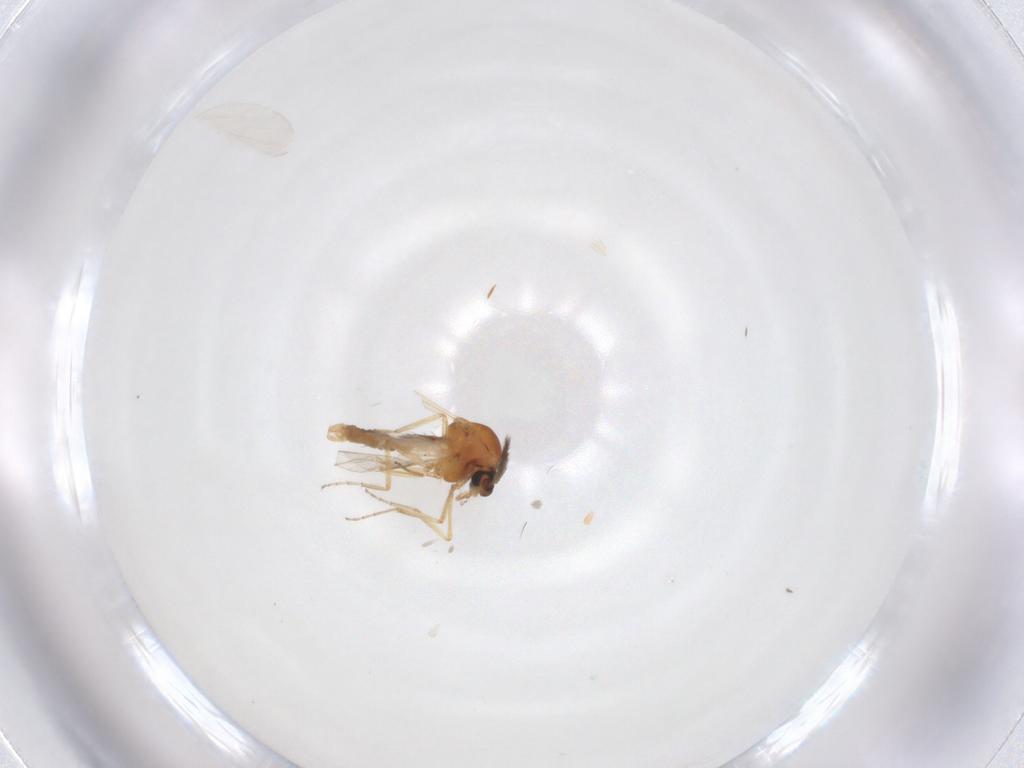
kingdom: Animalia
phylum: Arthropoda
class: Insecta
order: Diptera
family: Ceratopogonidae
